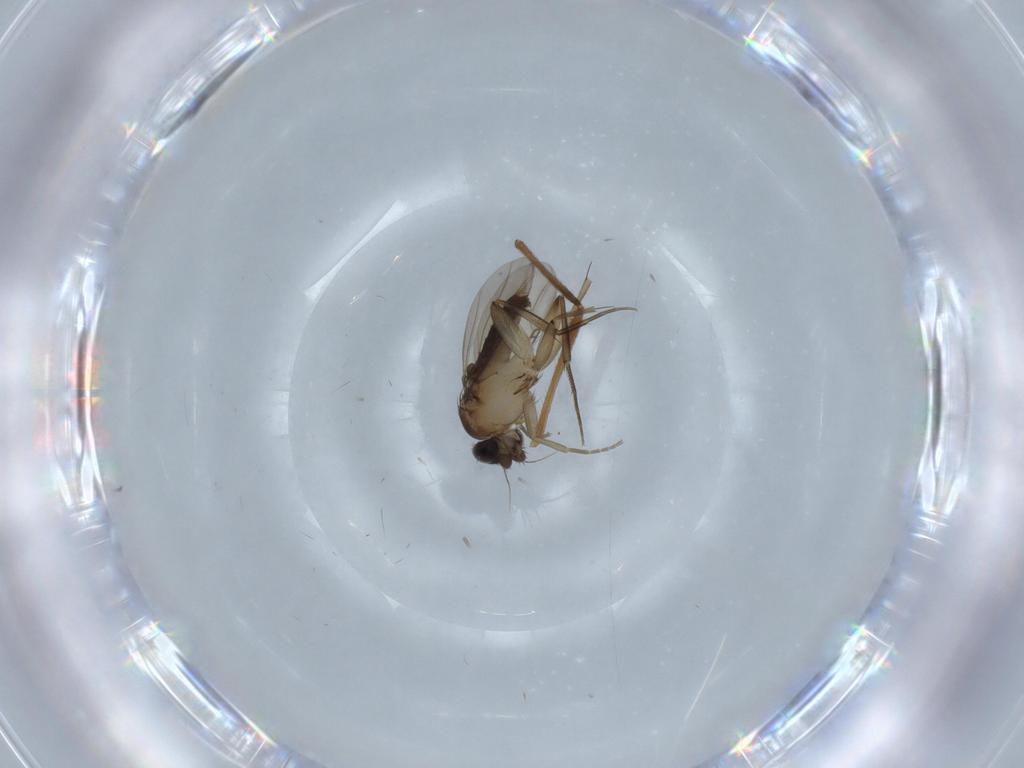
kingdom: Animalia
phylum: Arthropoda
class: Insecta
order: Diptera
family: Phoridae
